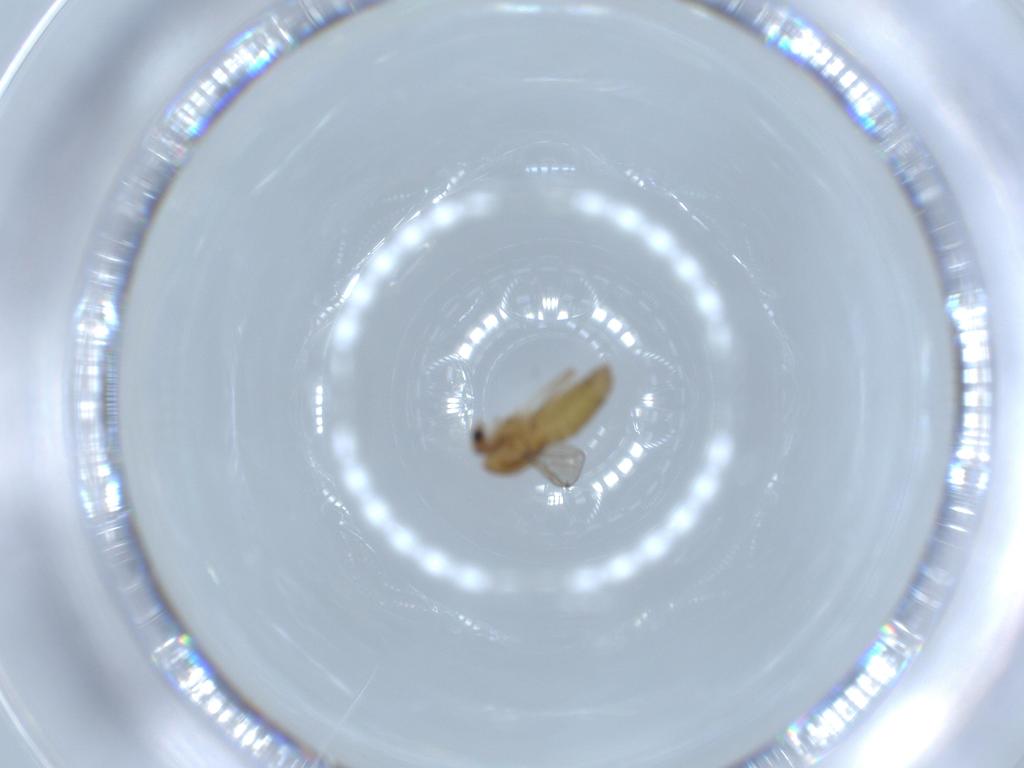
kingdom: Animalia
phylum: Arthropoda
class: Insecta
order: Diptera
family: Chironomidae
